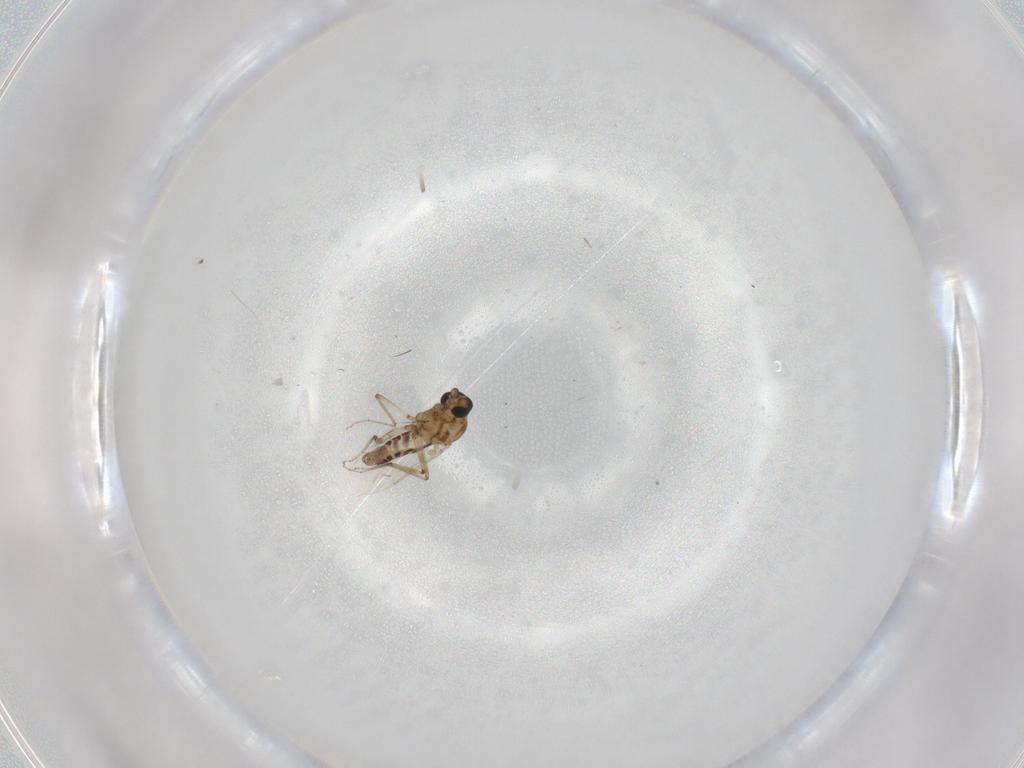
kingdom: Animalia
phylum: Arthropoda
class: Insecta
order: Diptera
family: Ceratopogonidae
